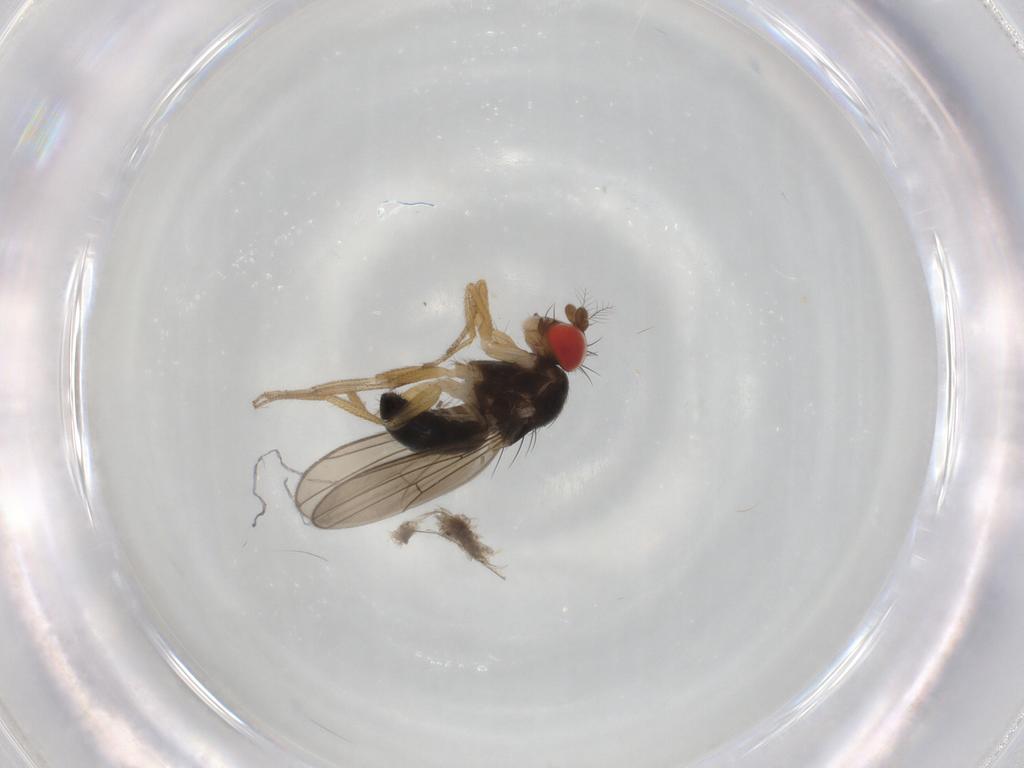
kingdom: Animalia
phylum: Arthropoda
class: Insecta
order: Diptera
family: Drosophilidae
